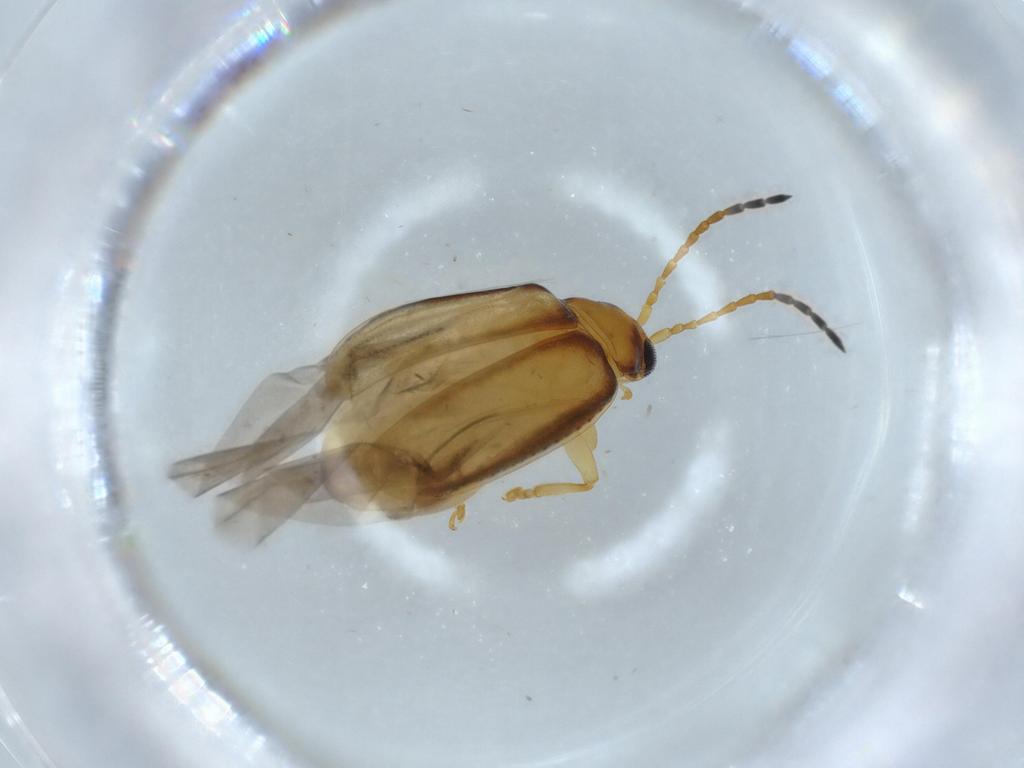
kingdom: Animalia
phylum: Arthropoda
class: Insecta
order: Coleoptera
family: Chrysomelidae
